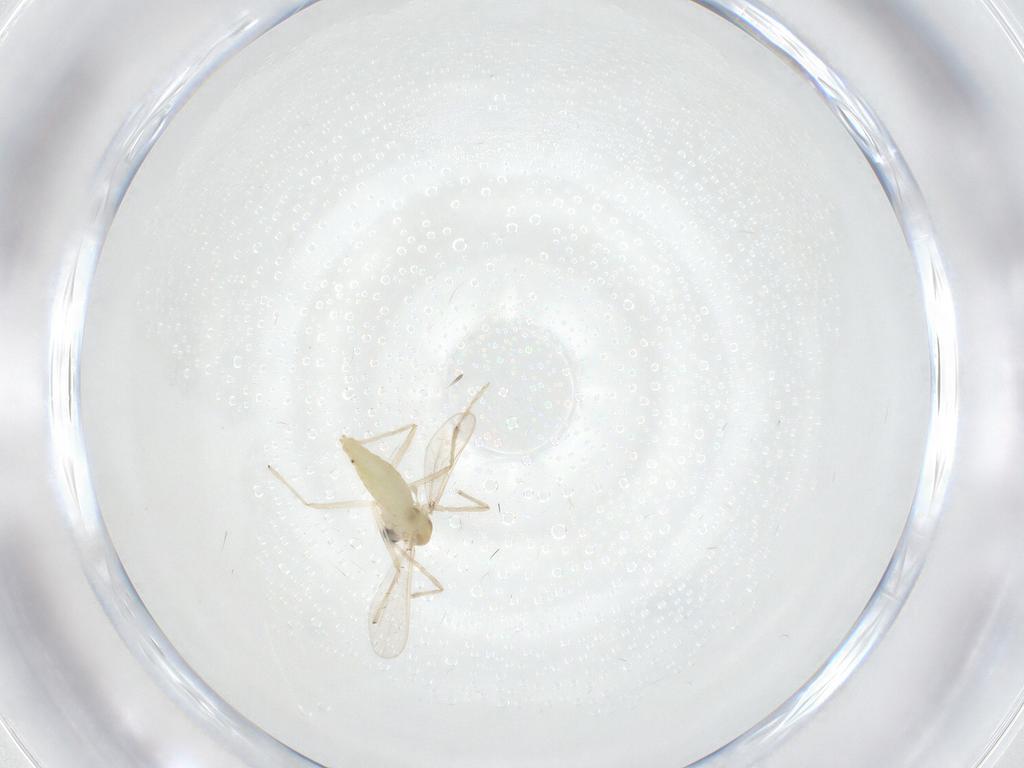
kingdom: Animalia
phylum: Arthropoda
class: Insecta
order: Diptera
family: Chironomidae
